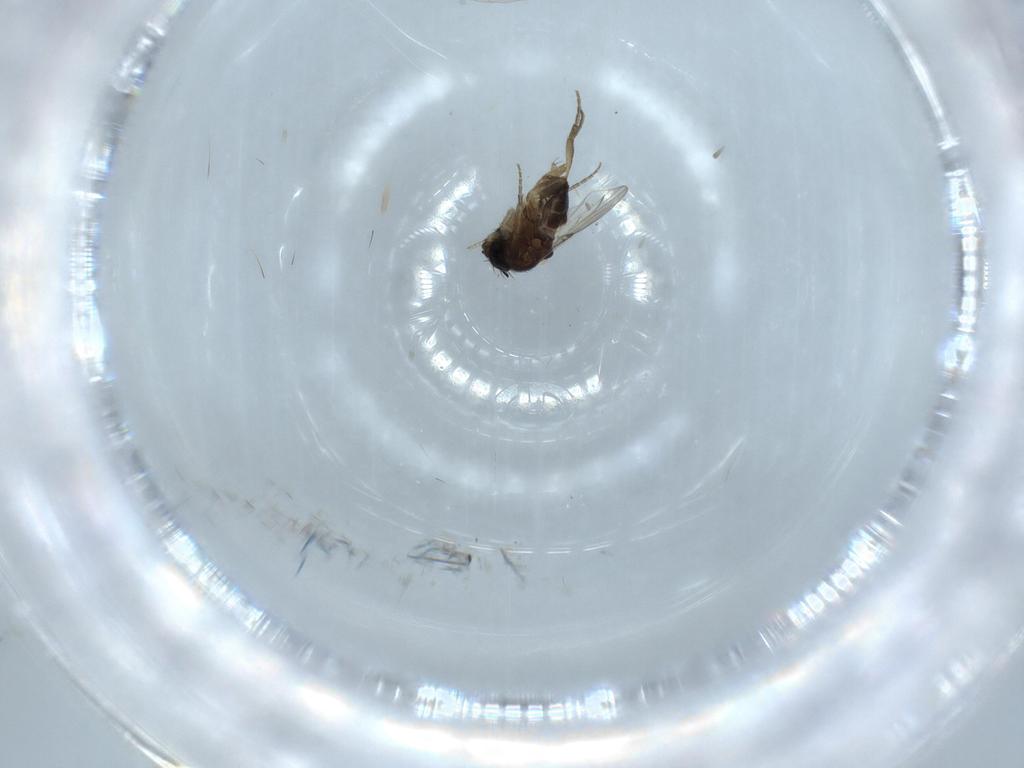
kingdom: Animalia
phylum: Arthropoda
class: Insecta
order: Diptera
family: Phoridae
